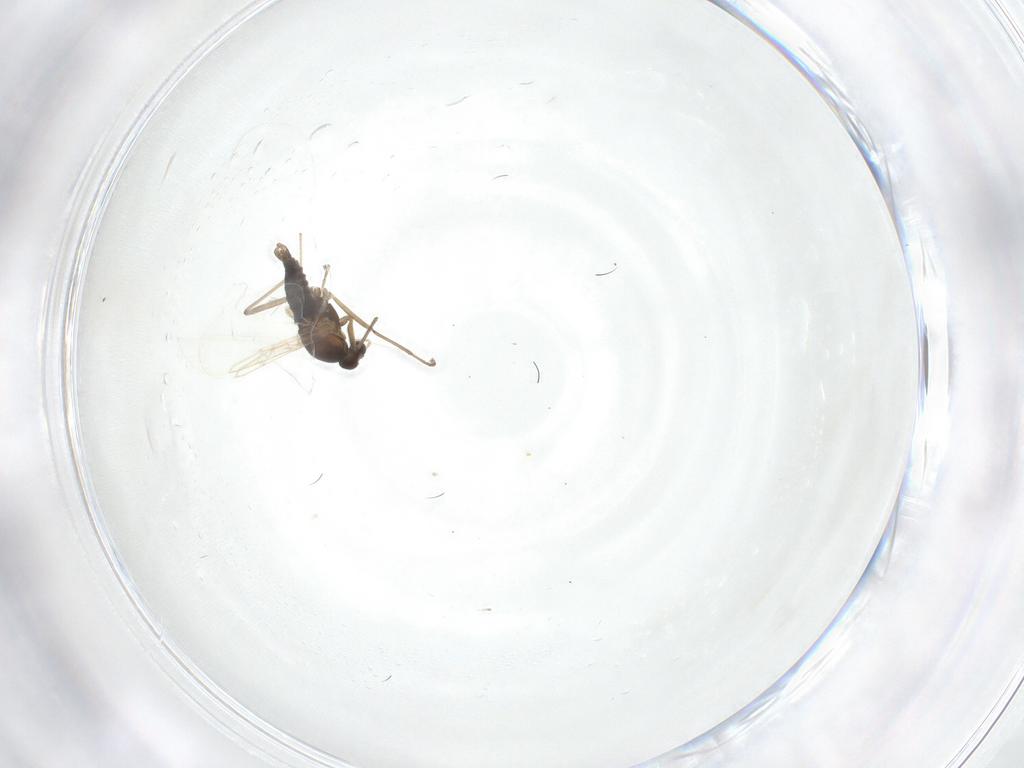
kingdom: Animalia
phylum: Arthropoda
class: Insecta
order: Diptera
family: Cecidomyiidae
